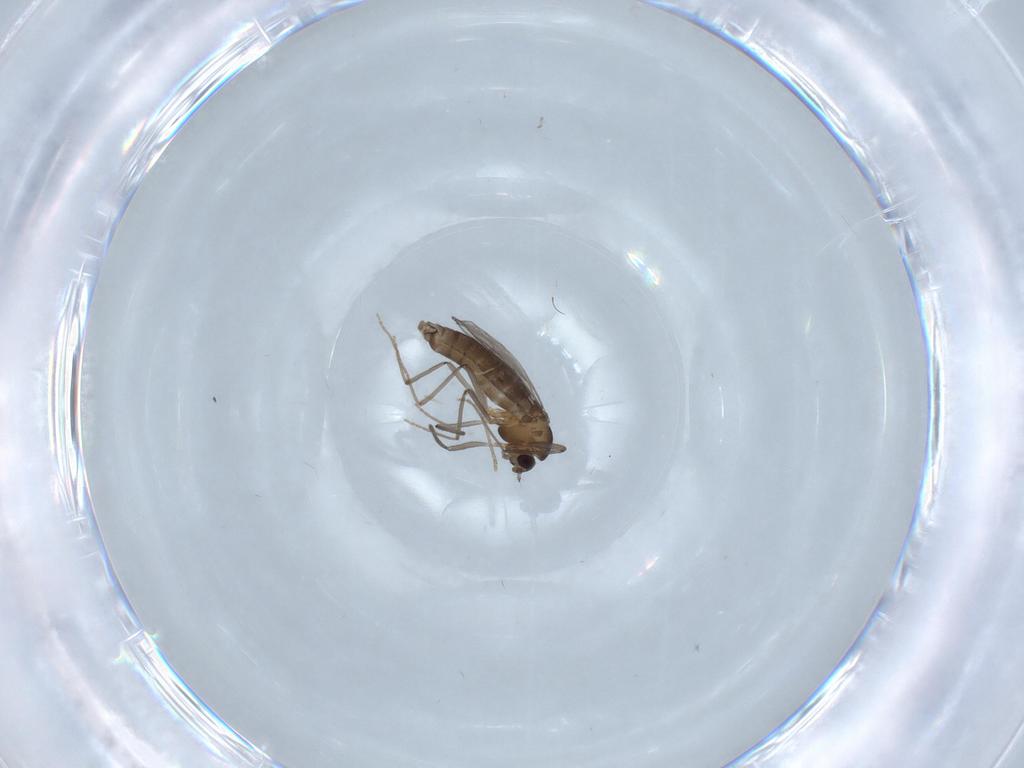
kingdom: Animalia
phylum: Arthropoda
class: Insecta
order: Diptera
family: Psychodidae
